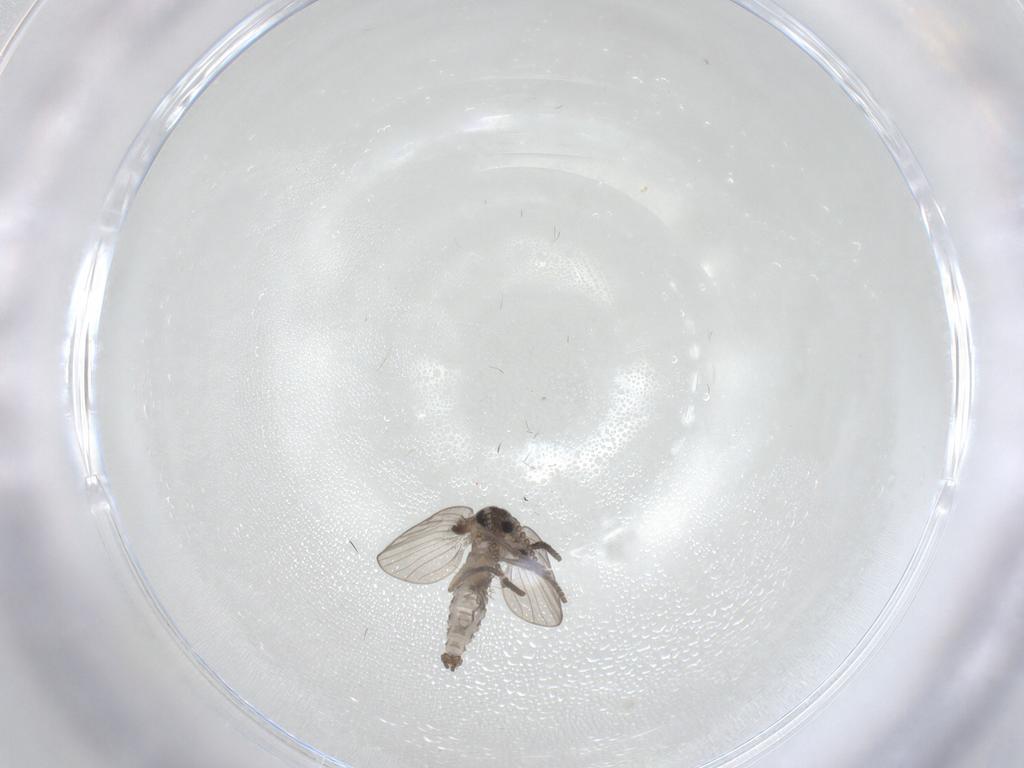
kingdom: Animalia
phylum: Arthropoda
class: Insecta
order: Diptera
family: Psychodidae
